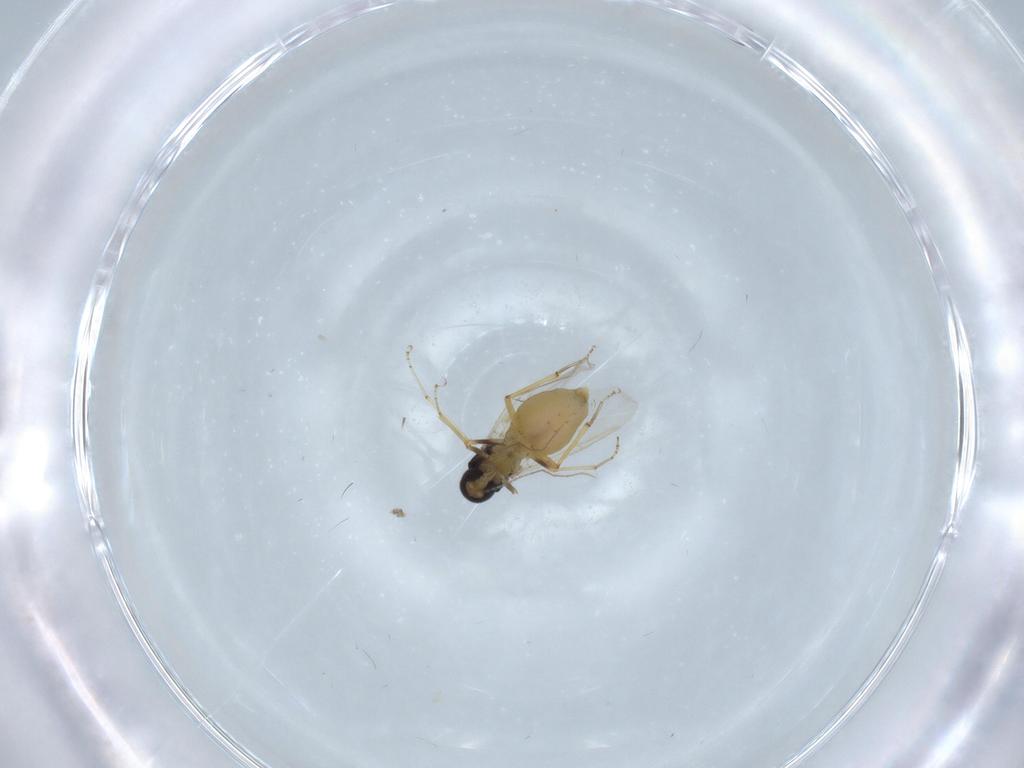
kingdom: Animalia
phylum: Arthropoda
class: Insecta
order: Diptera
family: Ceratopogonidae
